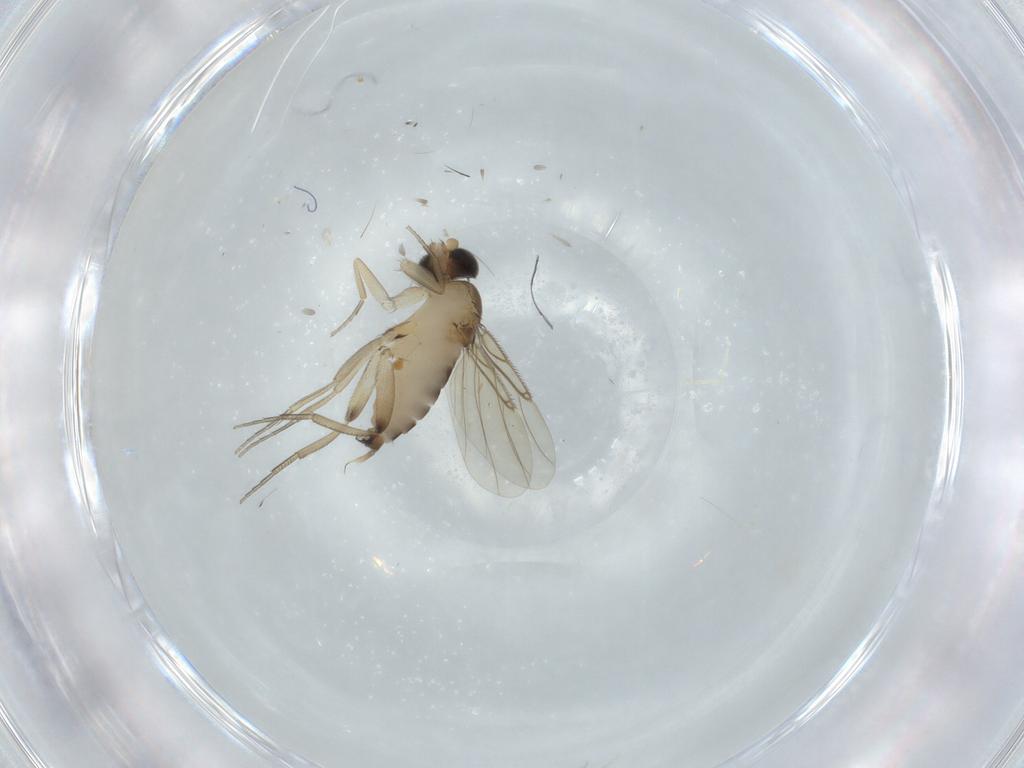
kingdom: Animalia
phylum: Arthropoda
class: Insecta
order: Diptera
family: Phoridae
